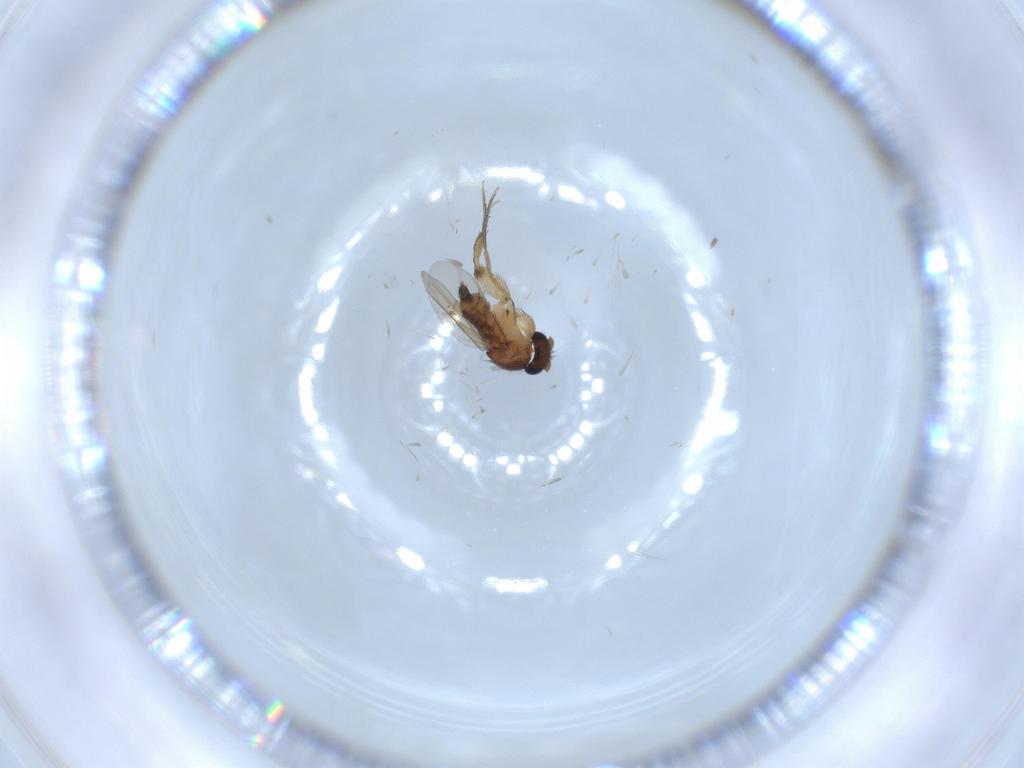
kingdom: Animalia
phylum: Arthropoda
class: Insecta
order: Diptera
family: Phoridae
